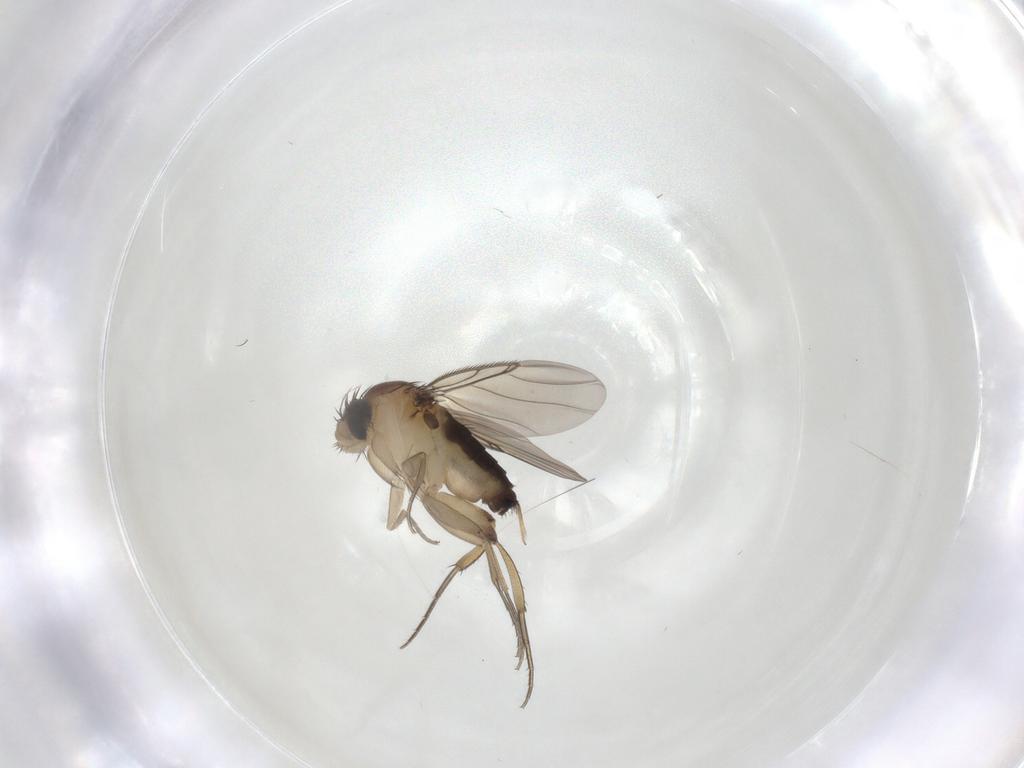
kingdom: Animalia
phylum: Arthropoda
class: Insecta
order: Diptera
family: Phoridae
